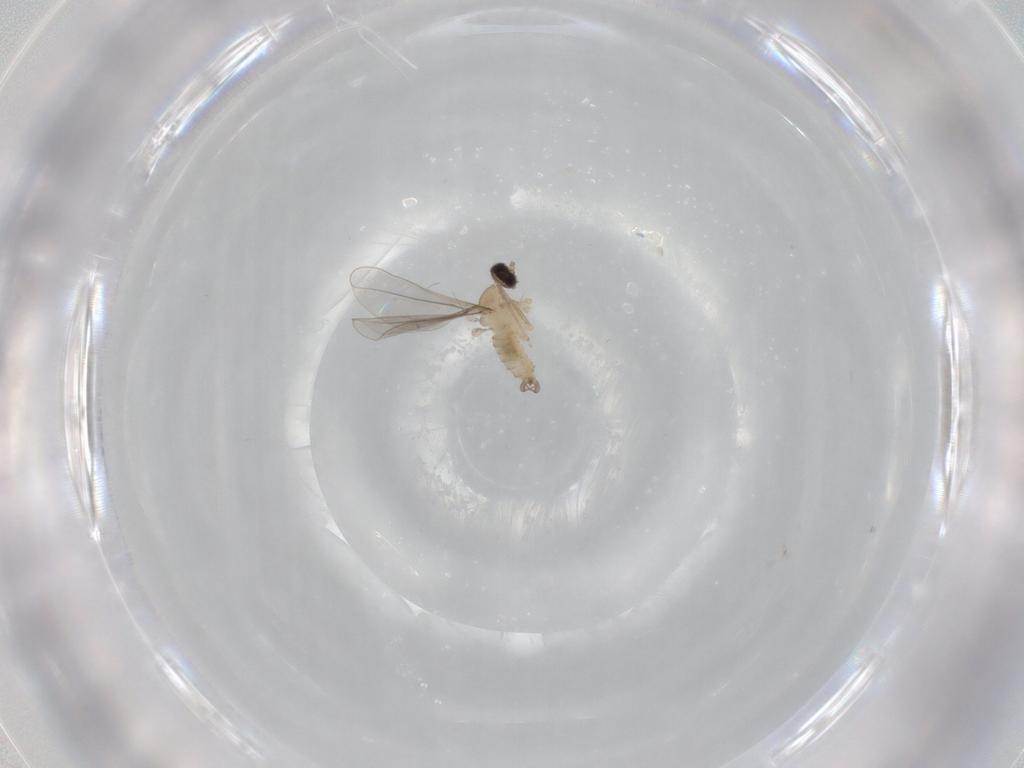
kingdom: Animalia
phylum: Arthropoda
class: Insecta
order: Diptera
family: Cecidomyiidae
